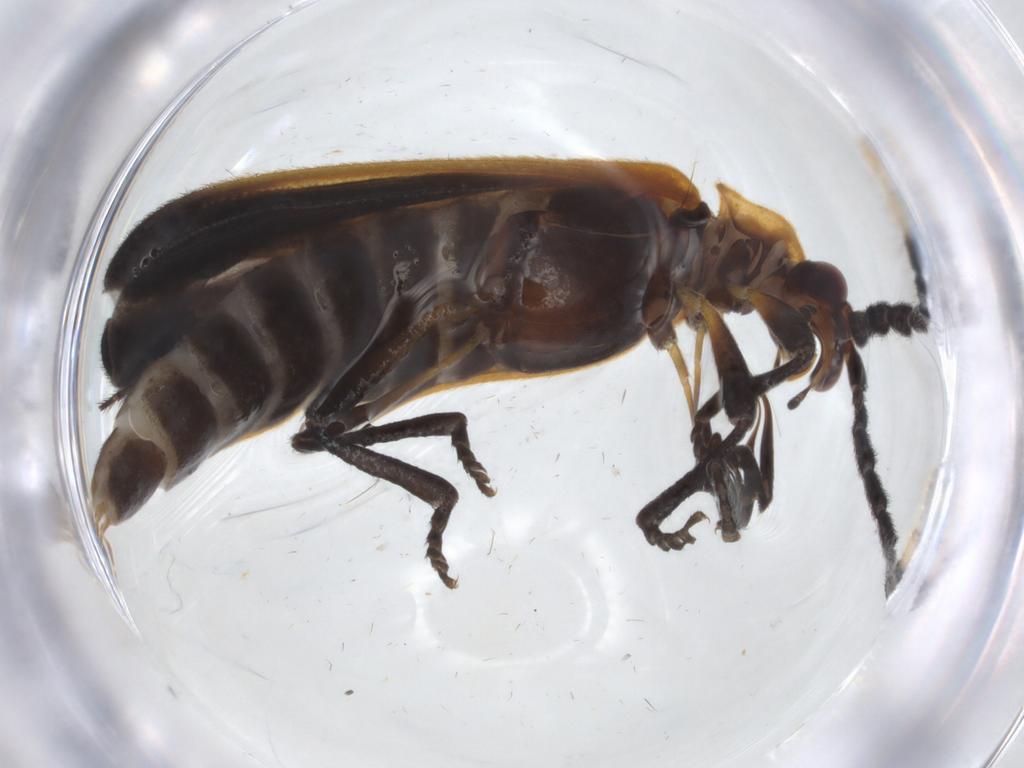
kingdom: Animalia
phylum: Arthropoda
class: Insecta
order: Coleoptera
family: Lycidae
